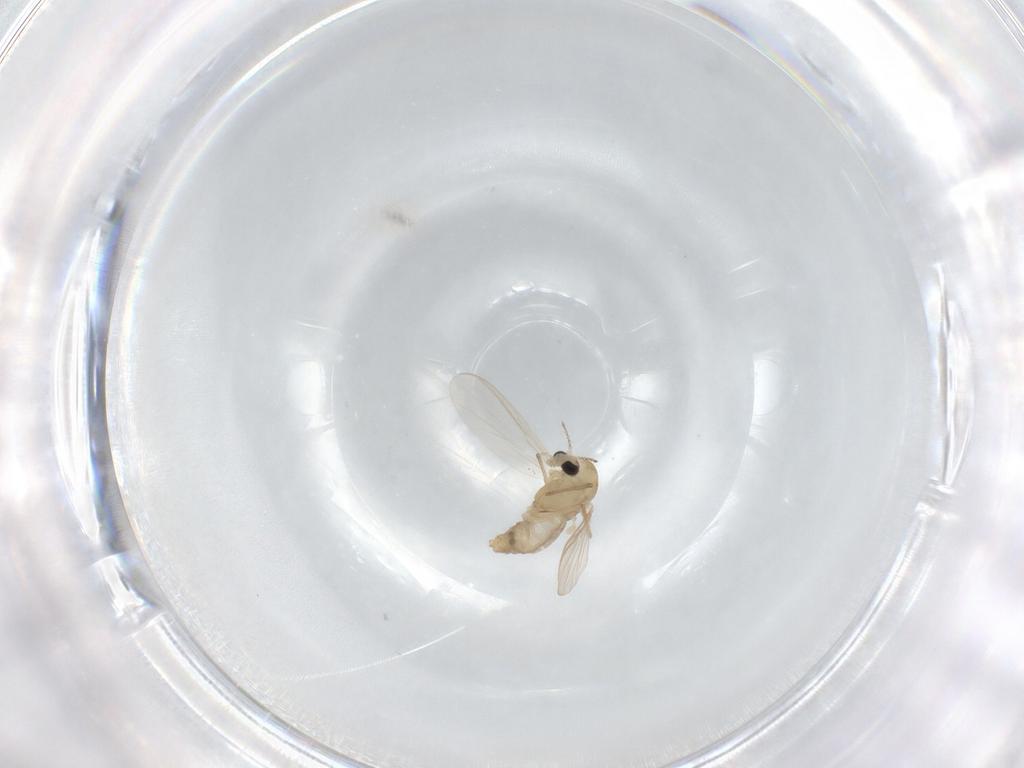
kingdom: Animalia
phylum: Arthropoda
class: Insecta
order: Diptera
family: Chironomidae
